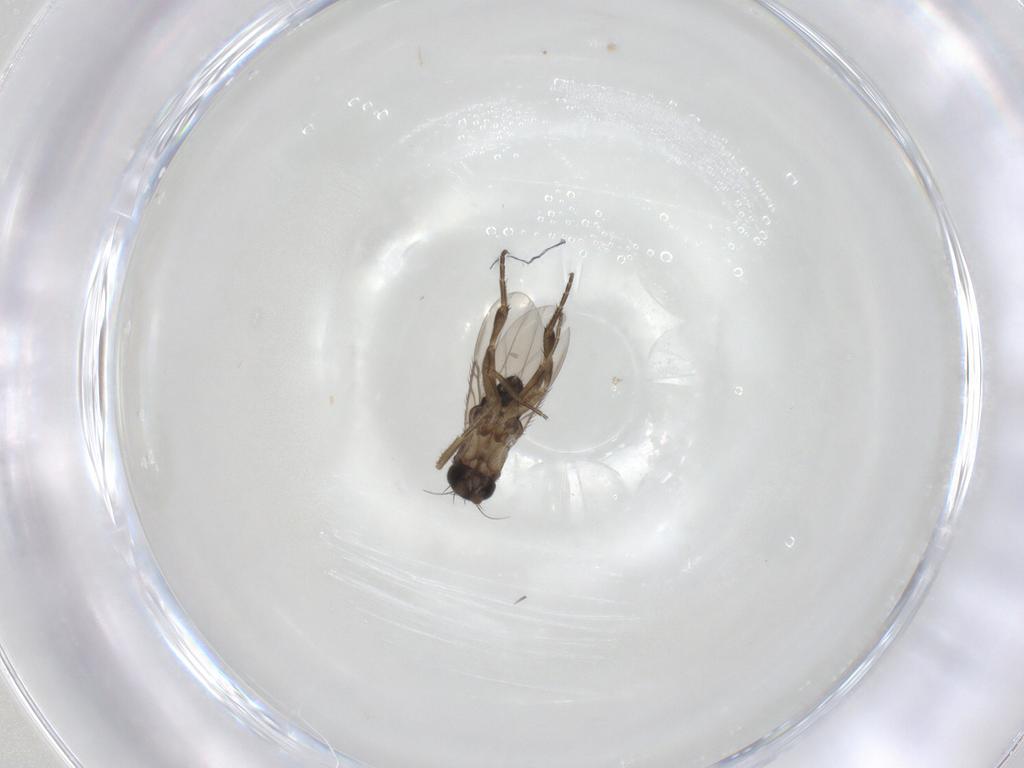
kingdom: Animalia
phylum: Arthropoda
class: Insecta
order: Diptera
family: Phoridae
